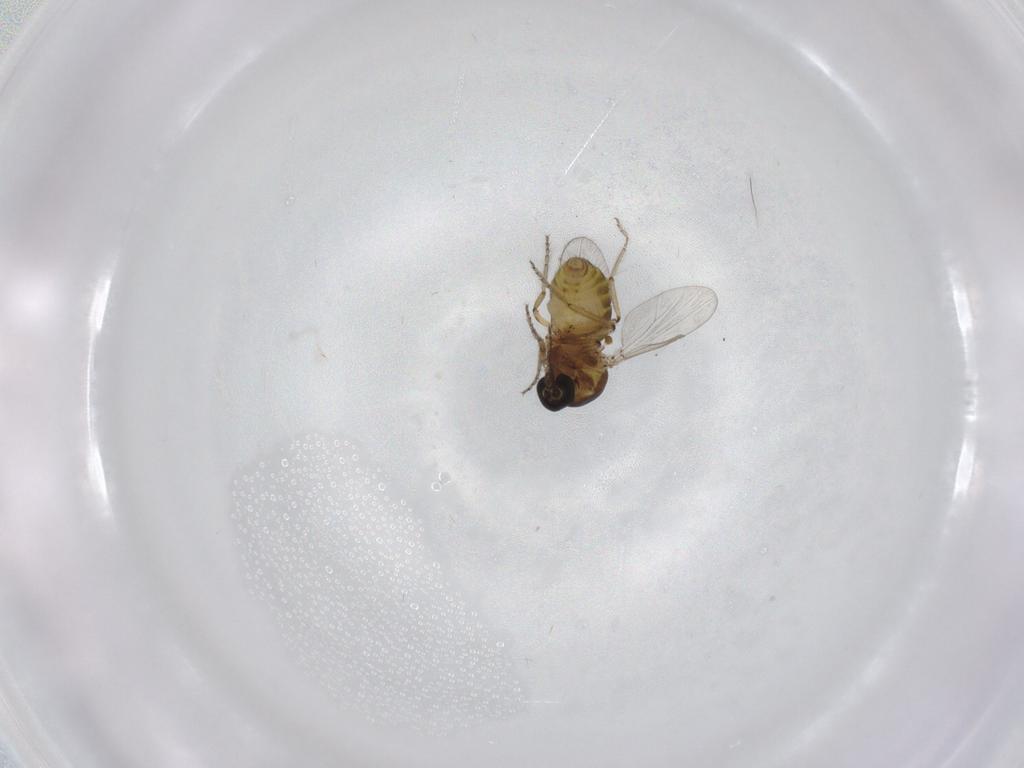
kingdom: Animalia
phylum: Arthropoda
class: Insecta
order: Diptera
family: Ceratopogonidae
